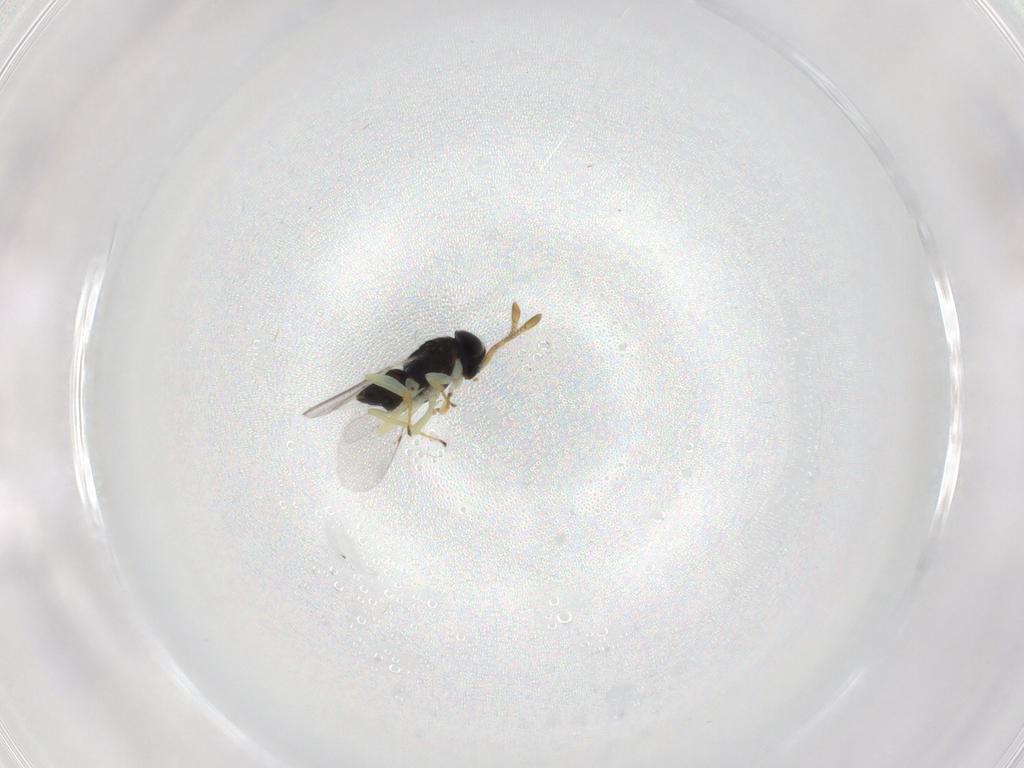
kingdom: Animalia
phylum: Arthropoda
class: Insecta
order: Hymenoptera
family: Encyrtidae
